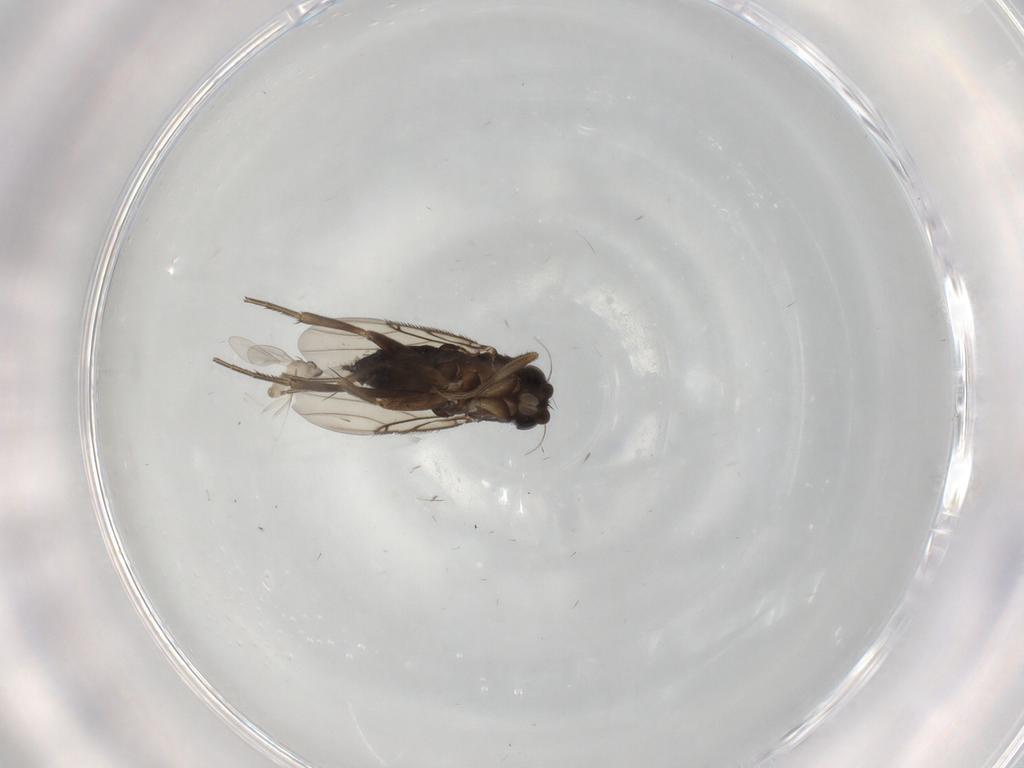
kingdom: Animalia
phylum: Arthropoda
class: Insecta
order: Diptera
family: Phoridae
